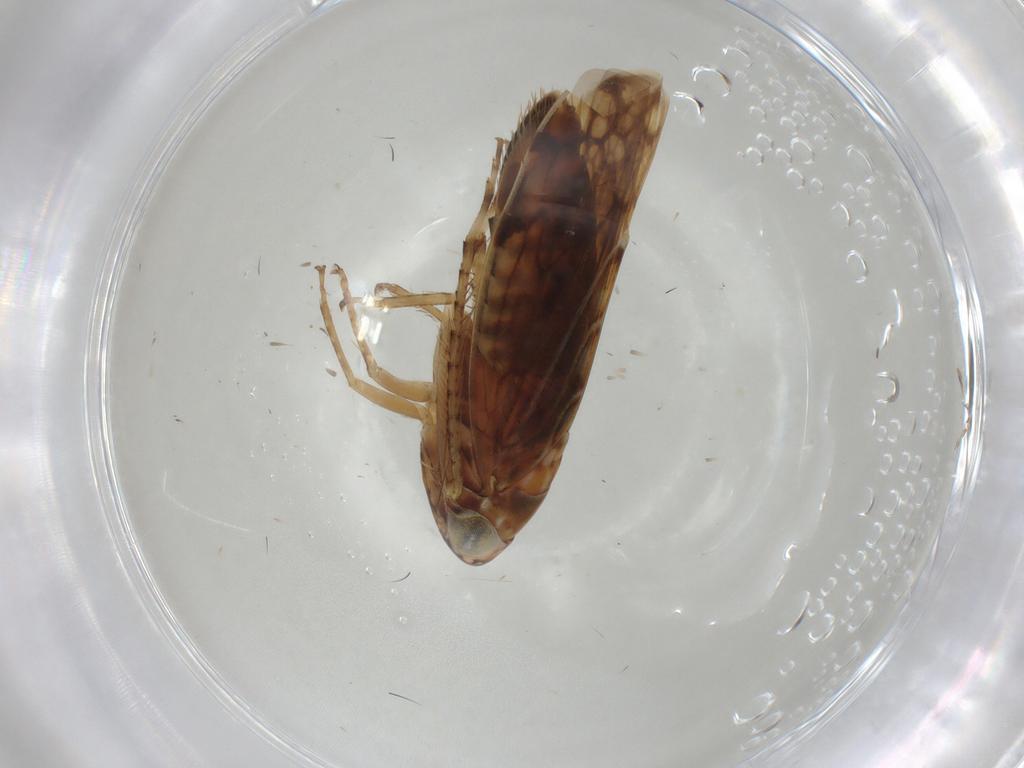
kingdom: Animalia
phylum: Arthropoda
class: Insecta
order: Hemiptera
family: Cicadellidae
